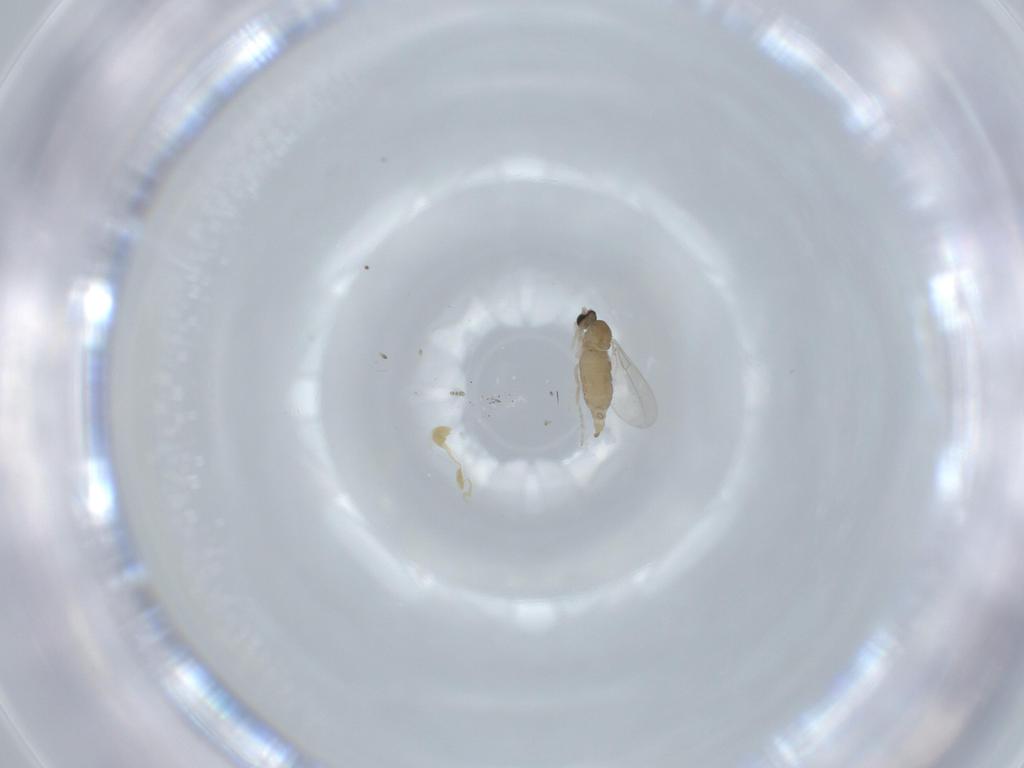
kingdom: Animalia
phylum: Arthropoda
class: Insecta
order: Diptera
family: Cecidomyiidae
